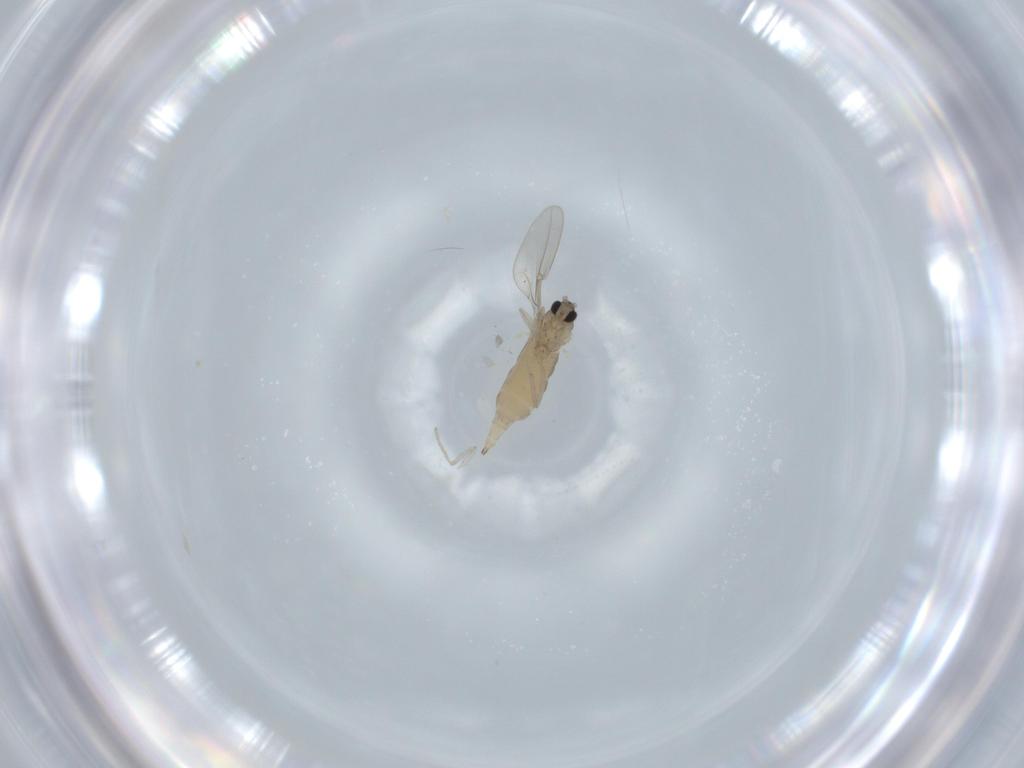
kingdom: Animalia
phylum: Arthropoda
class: Insecta
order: Diptera
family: Cecidomyiidae
